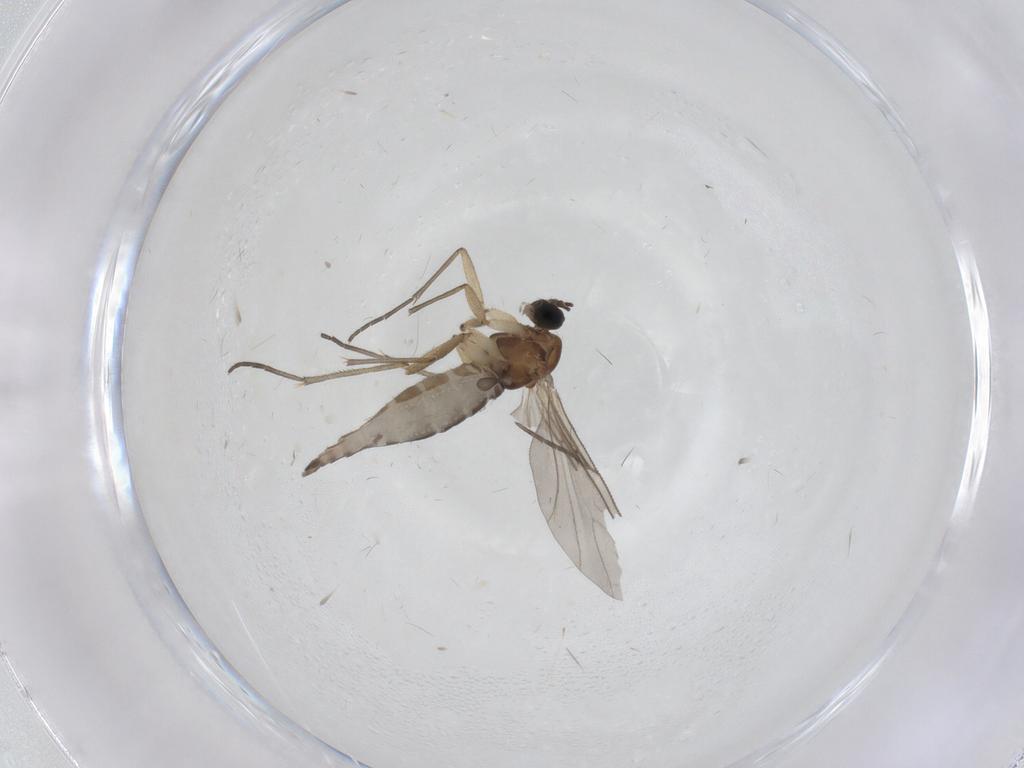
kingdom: Animalia
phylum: Arthropoda
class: Insecta
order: Diptera
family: Sciaridae
